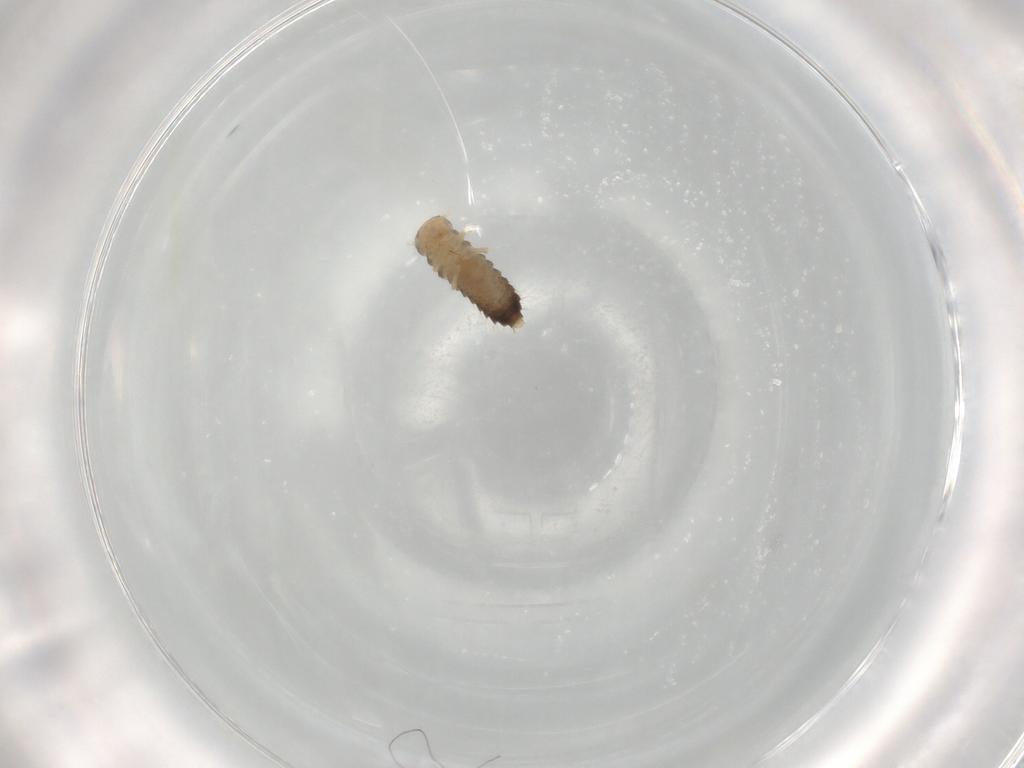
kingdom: Animalia
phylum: Arthropoda
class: Insecta
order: Coleoptera
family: Staphylinidae
